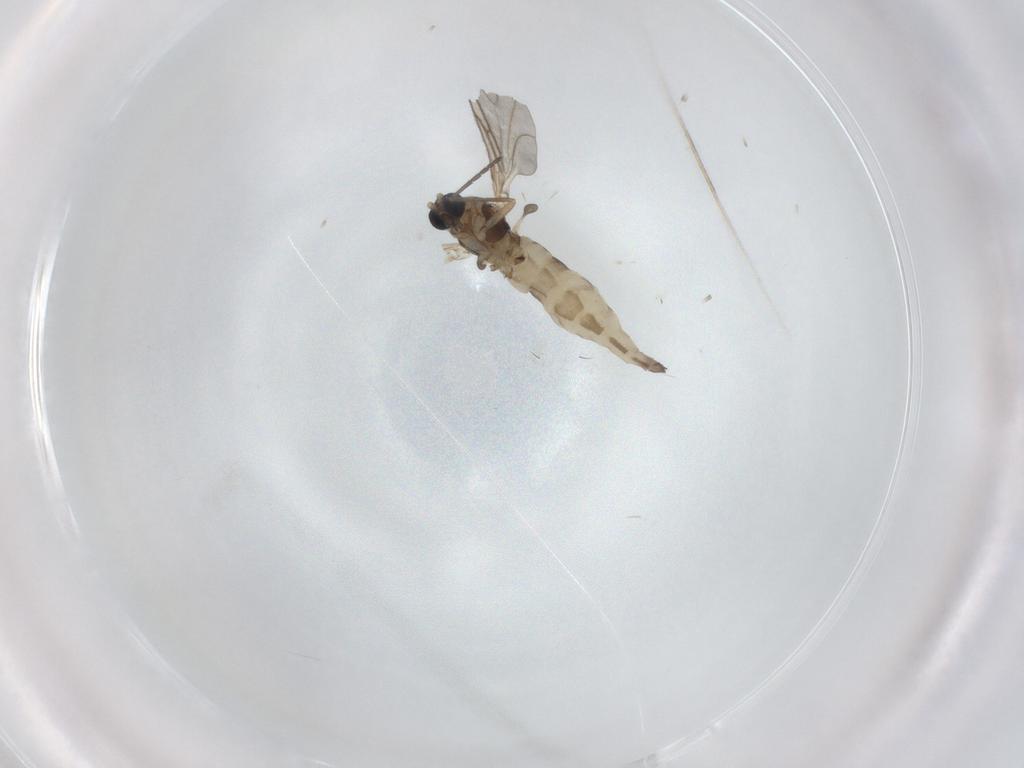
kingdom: Animalia
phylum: Arthropoda
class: Insecta
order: Diptera
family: Sciaridae
